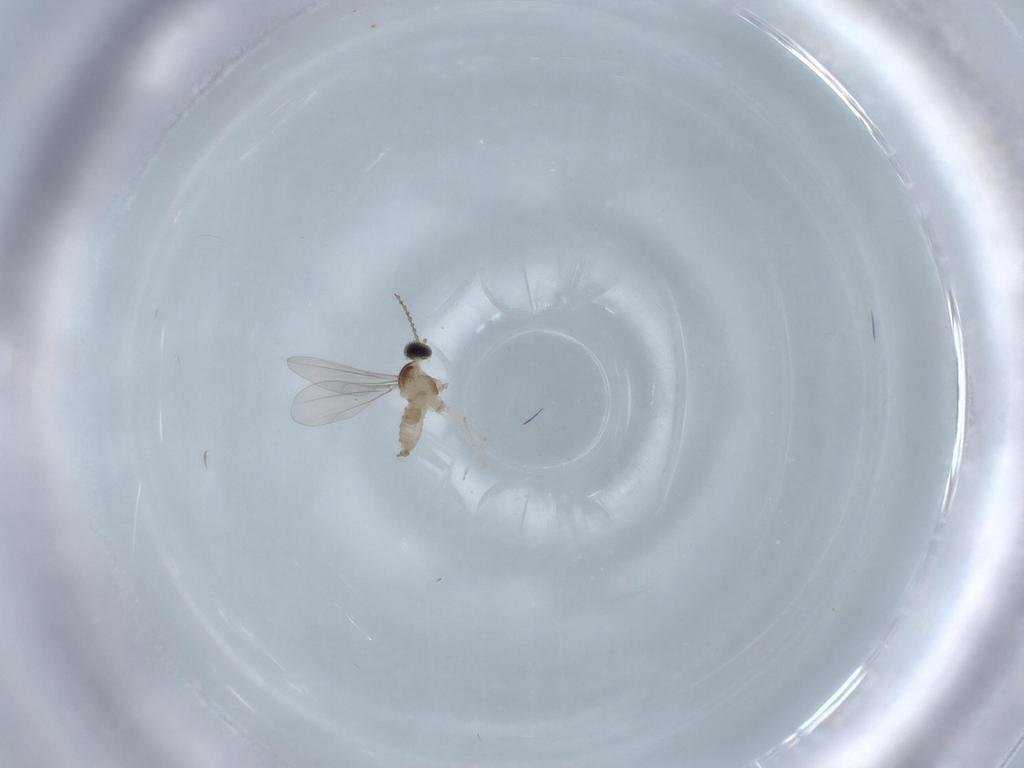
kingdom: Animalia
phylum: Arthropoda
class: Insecta
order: Diptera
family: Cecidomyiidae
